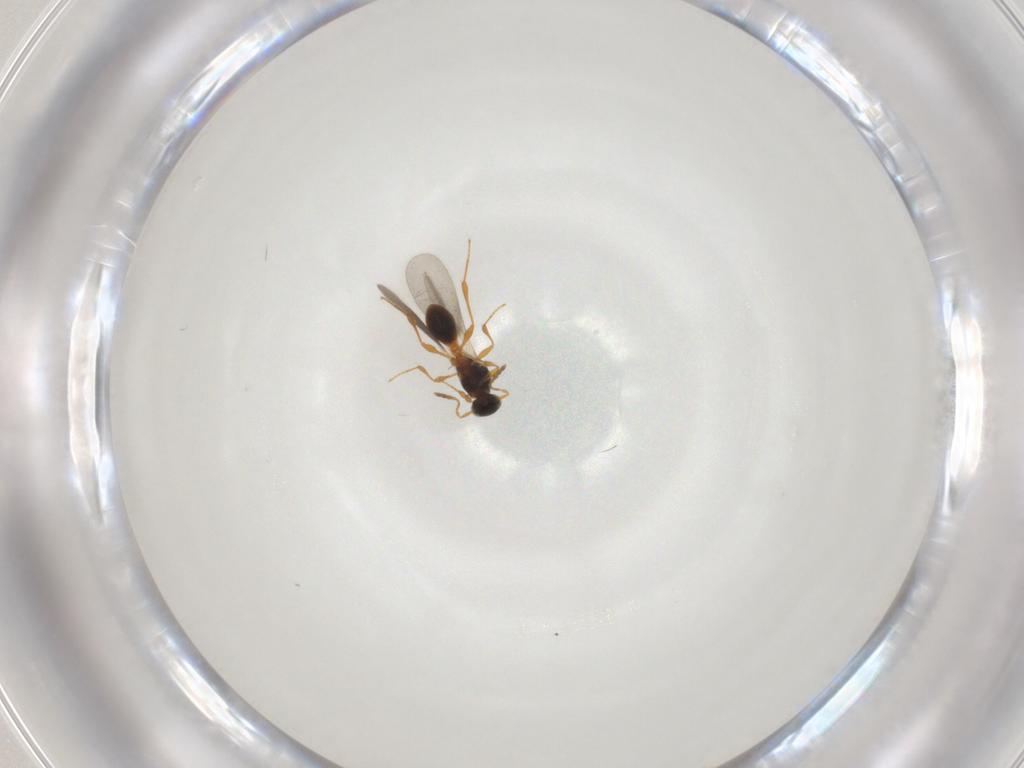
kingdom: Animalia
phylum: Arthropoda
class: Insecta
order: Hymenoptera
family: Platygastridae
